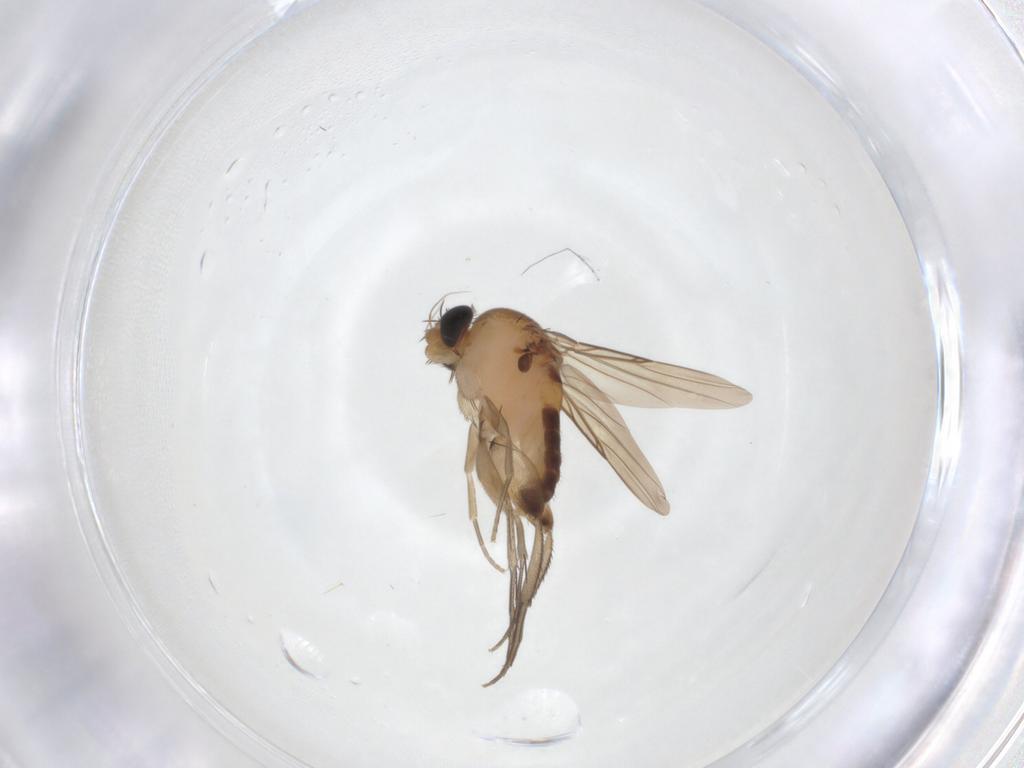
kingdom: Animalia
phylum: Arthropoda
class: Insecta
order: Diptera
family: Phoridae
